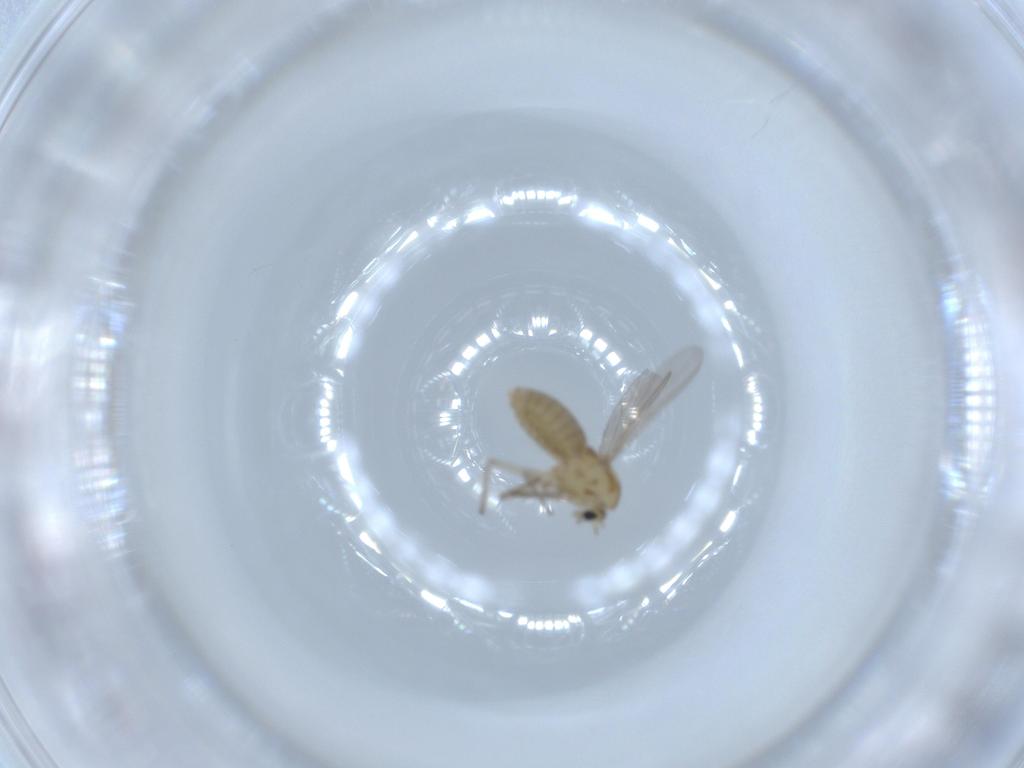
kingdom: Animalia
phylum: Arthropoda
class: Insecta
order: Diptera
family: Chironomidae
